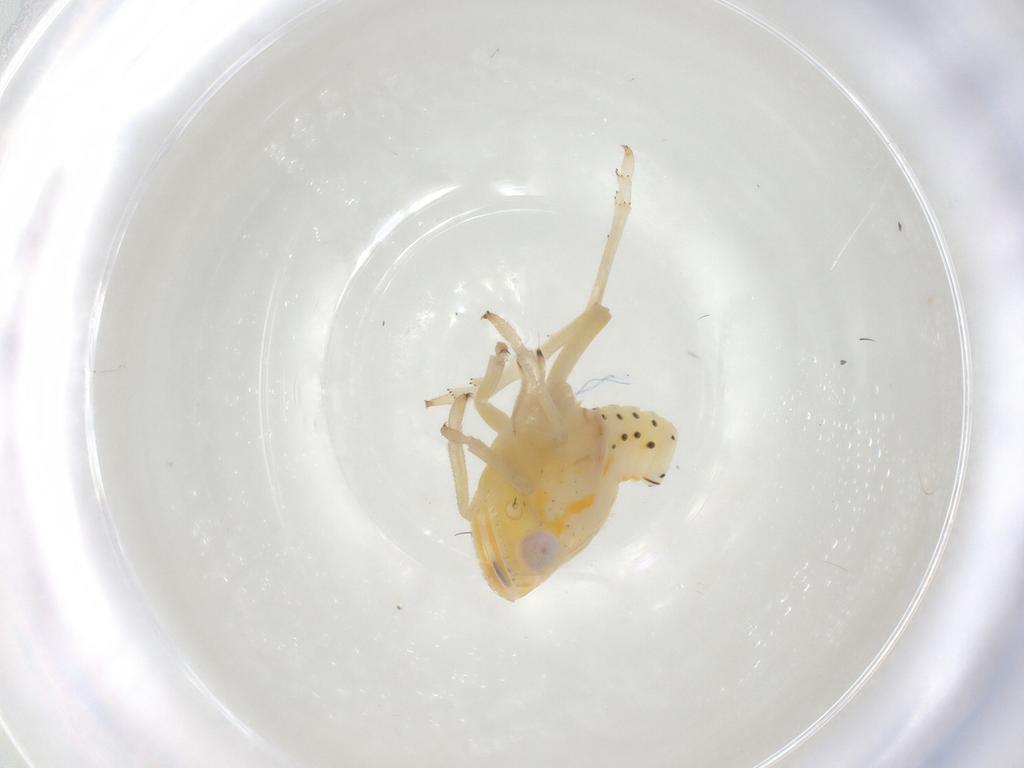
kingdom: Animalia
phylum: Arthropoda
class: Insecta
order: Hemiptera
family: Tropiduchidae
